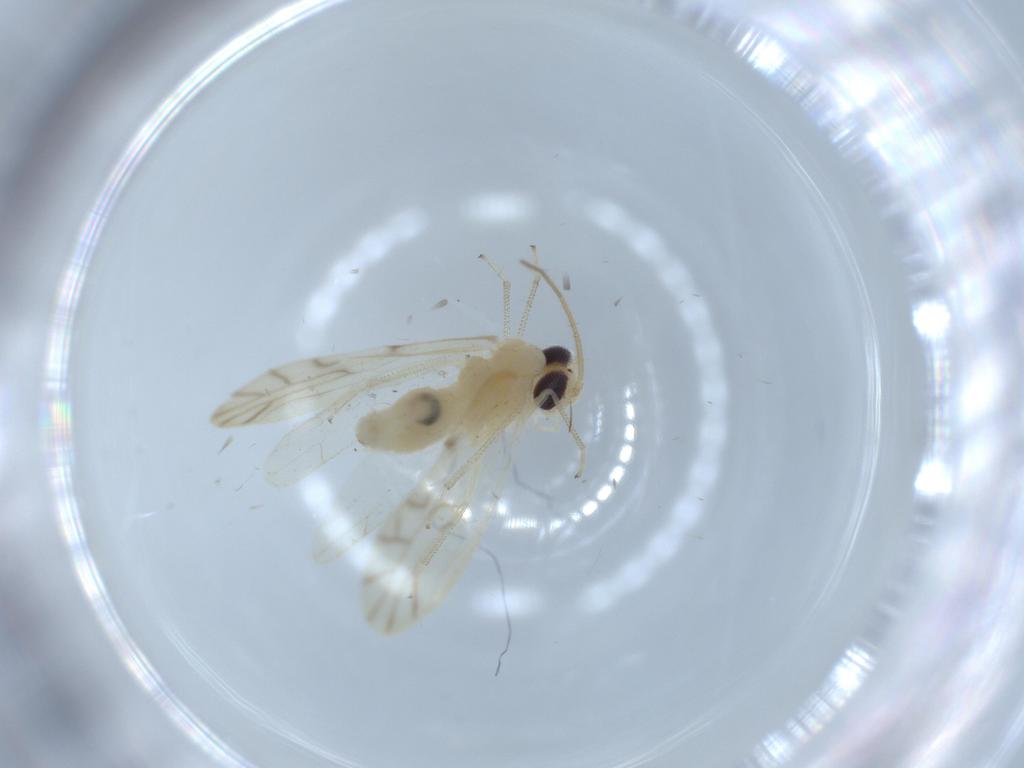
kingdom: Animalia
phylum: Arthropoda
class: Insecta
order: Psocodea
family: Caeciliusidae
